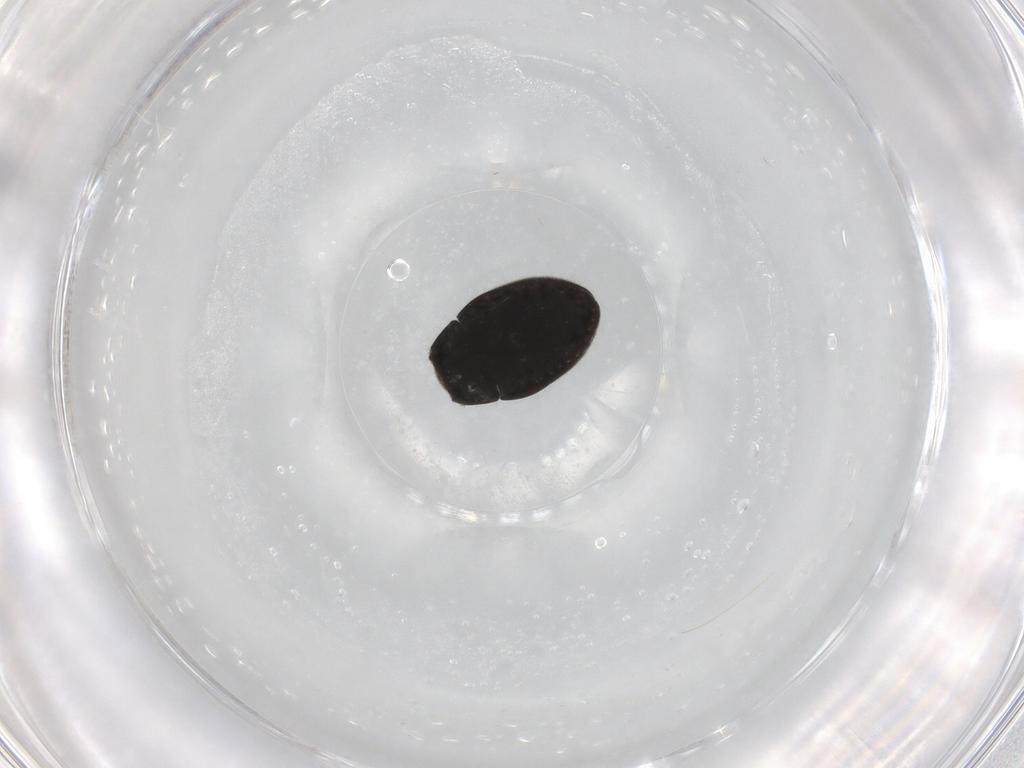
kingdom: Animalia
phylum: Arthropoda
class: Insecta
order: Coleoptera
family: Limnichidae
